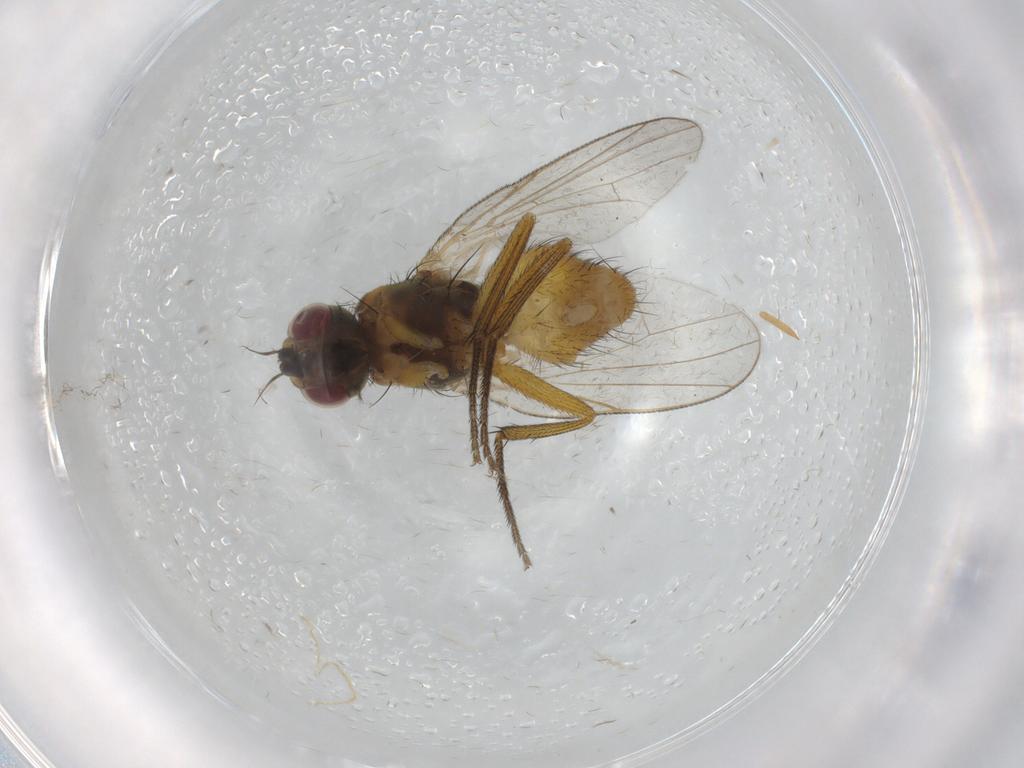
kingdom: Animalia
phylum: Arthropoda
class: Insecta
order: Diptera
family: Muscidae
